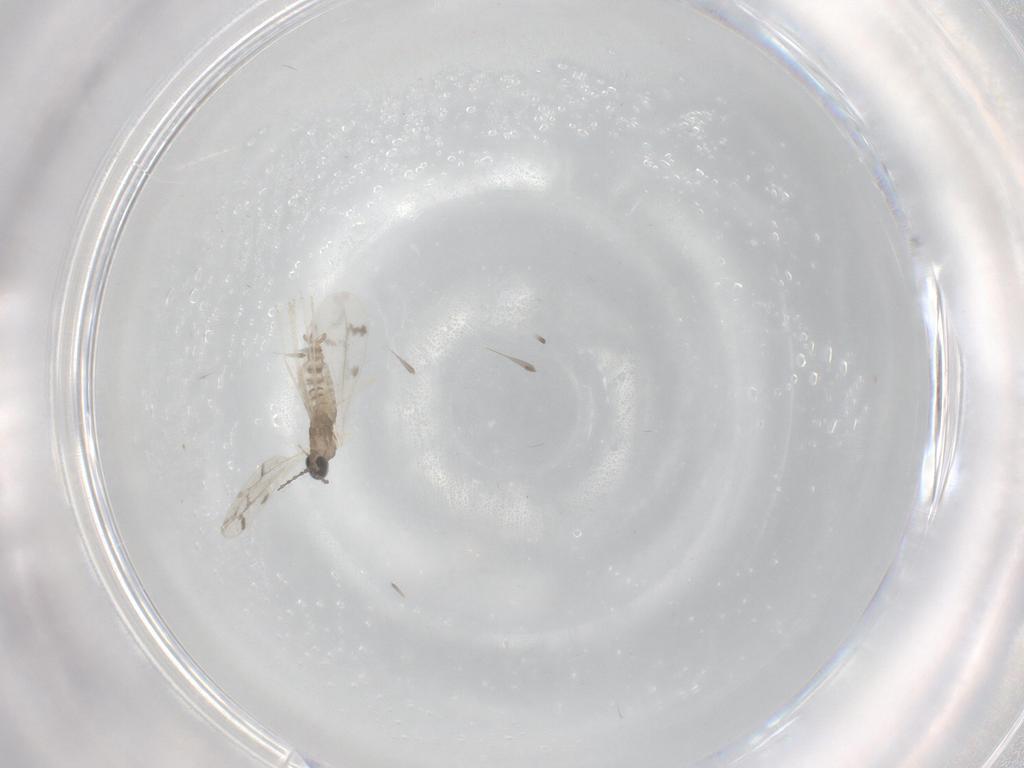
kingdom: Animalia
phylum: Arthropoda
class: Insecta
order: Diptera
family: Cecidomyiidae
